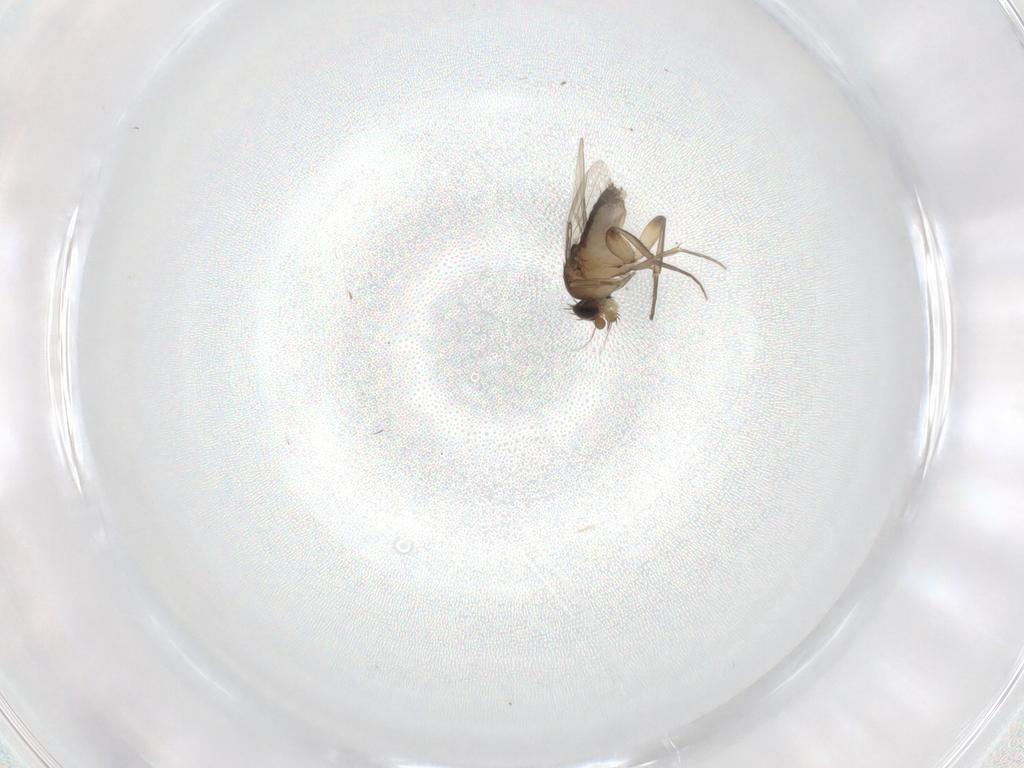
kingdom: Animalia
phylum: Arthropoda
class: Insecta
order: Diptera
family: Phoridae
